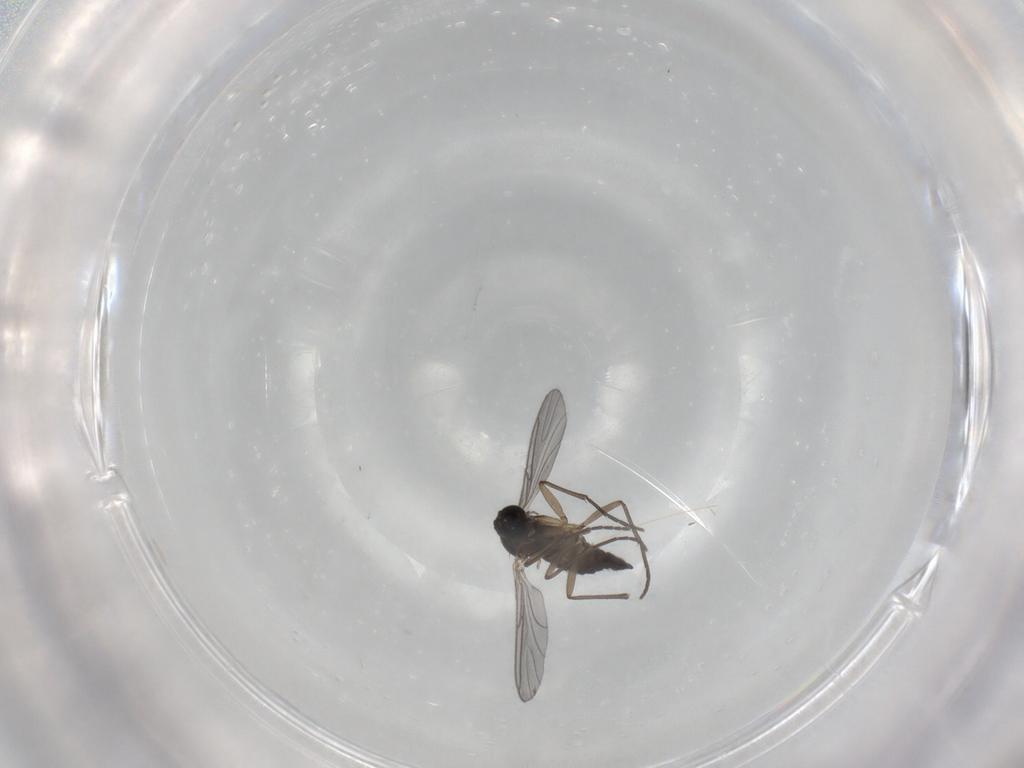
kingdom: Animalia
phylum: Arthropoda
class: Insecta
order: Diptera
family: Sciaridae
